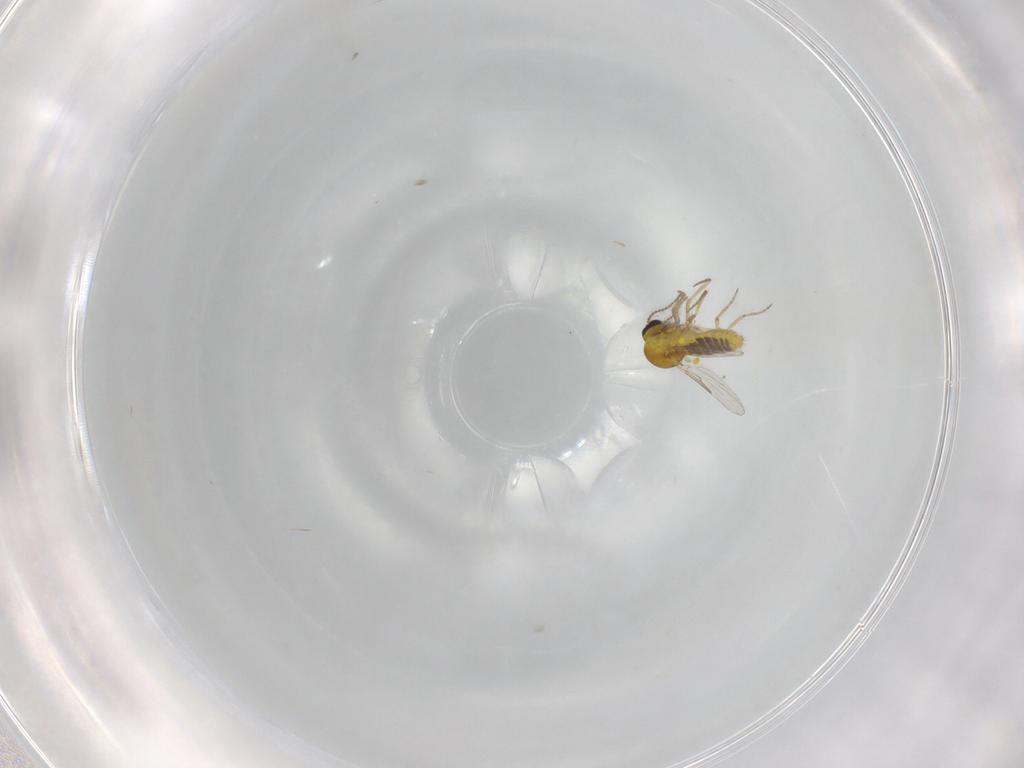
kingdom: Animalia
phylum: Arthropoda
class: Insecta
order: Diptera
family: Ceratopogonidae
